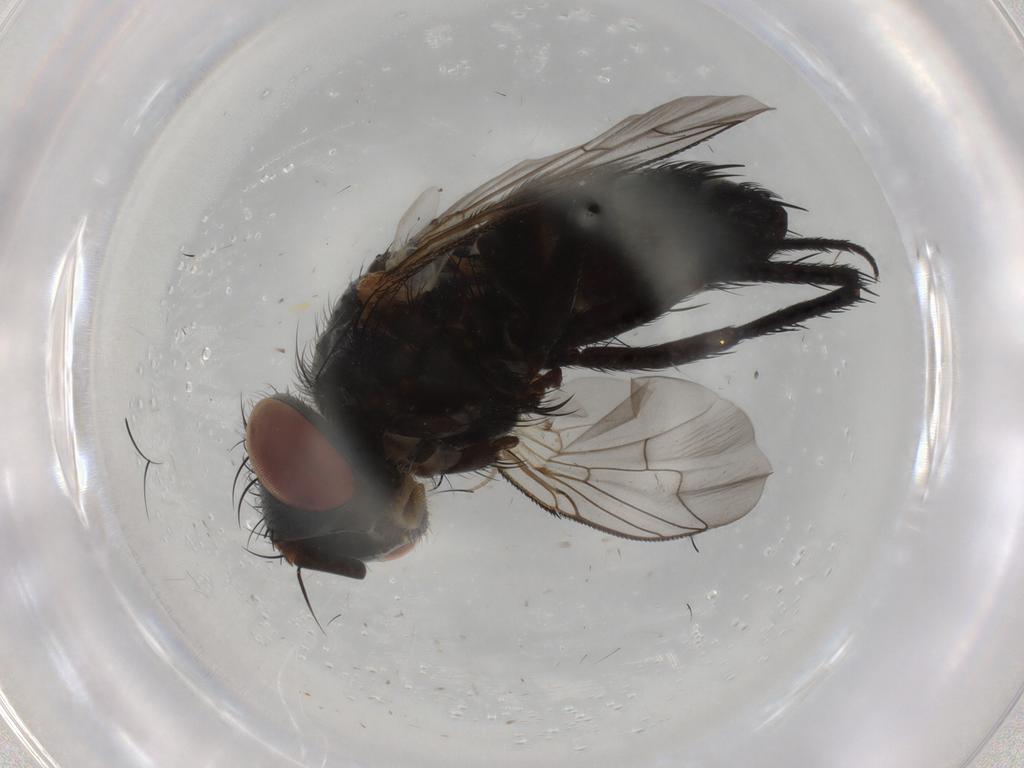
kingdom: Animalia
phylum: Arthropoda
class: Insecta
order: Diptera
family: Hybotidae
